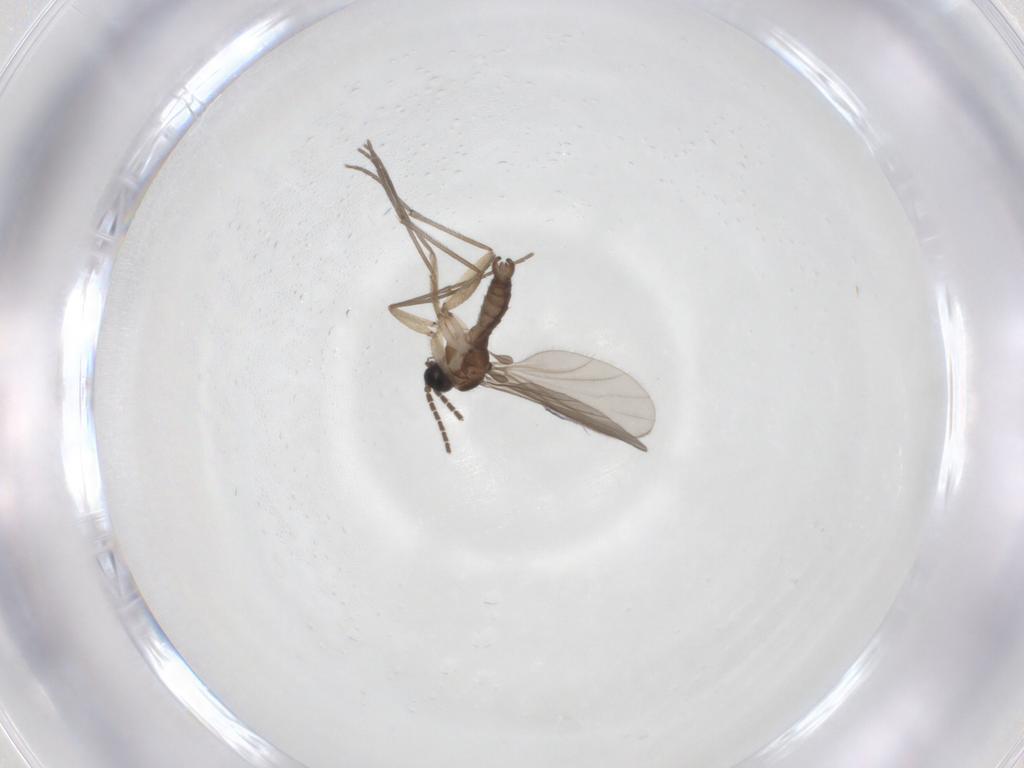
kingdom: Animalia
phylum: Arthropoda
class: Insecta
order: Diptera
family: Sciaridae
